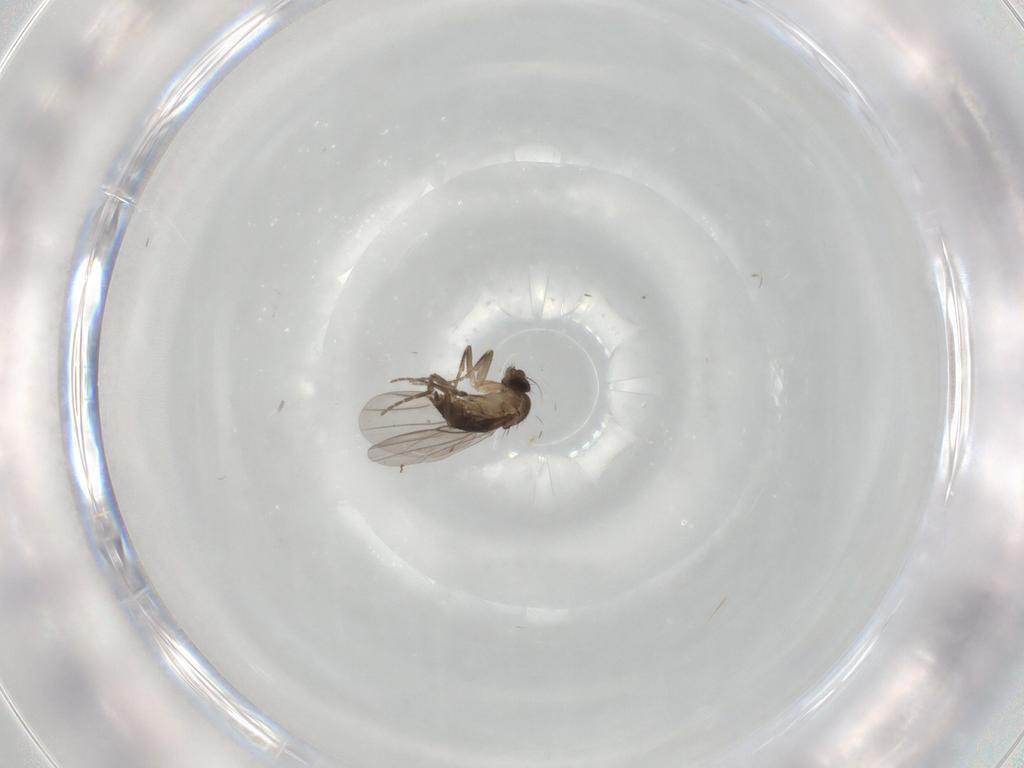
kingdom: Animalia
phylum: Arthropoda
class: Insecta
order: Diptera
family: Phoridae
